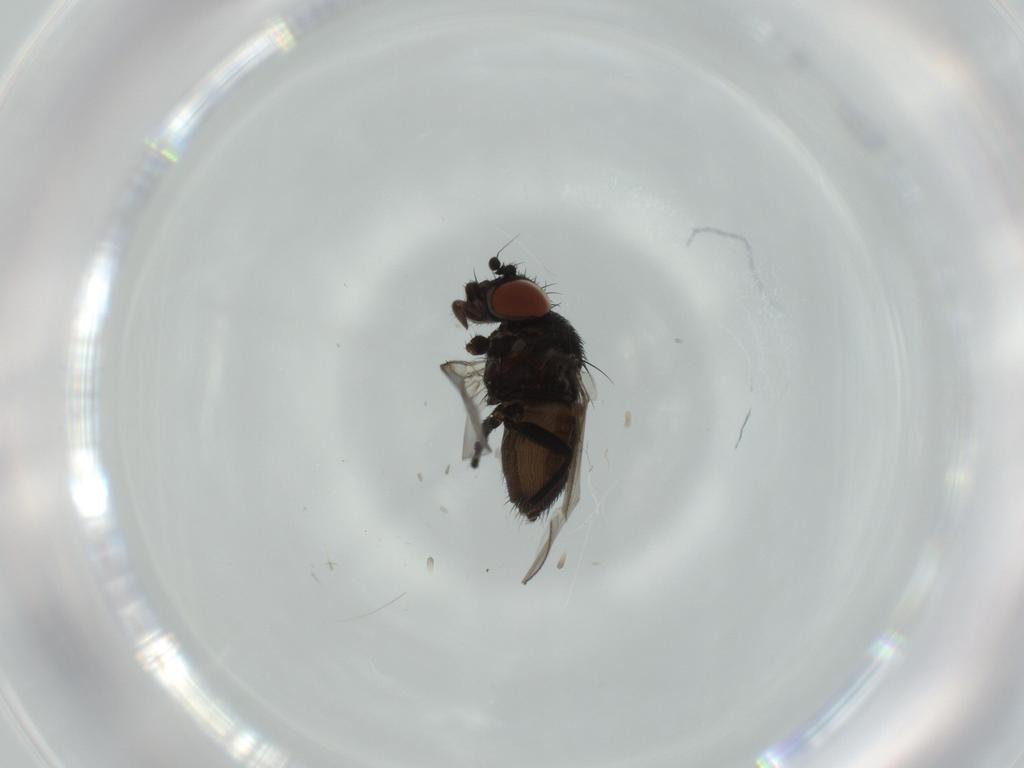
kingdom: Animalia
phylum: Arthropoda
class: Insecta
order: Diptera
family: Milichiidae
